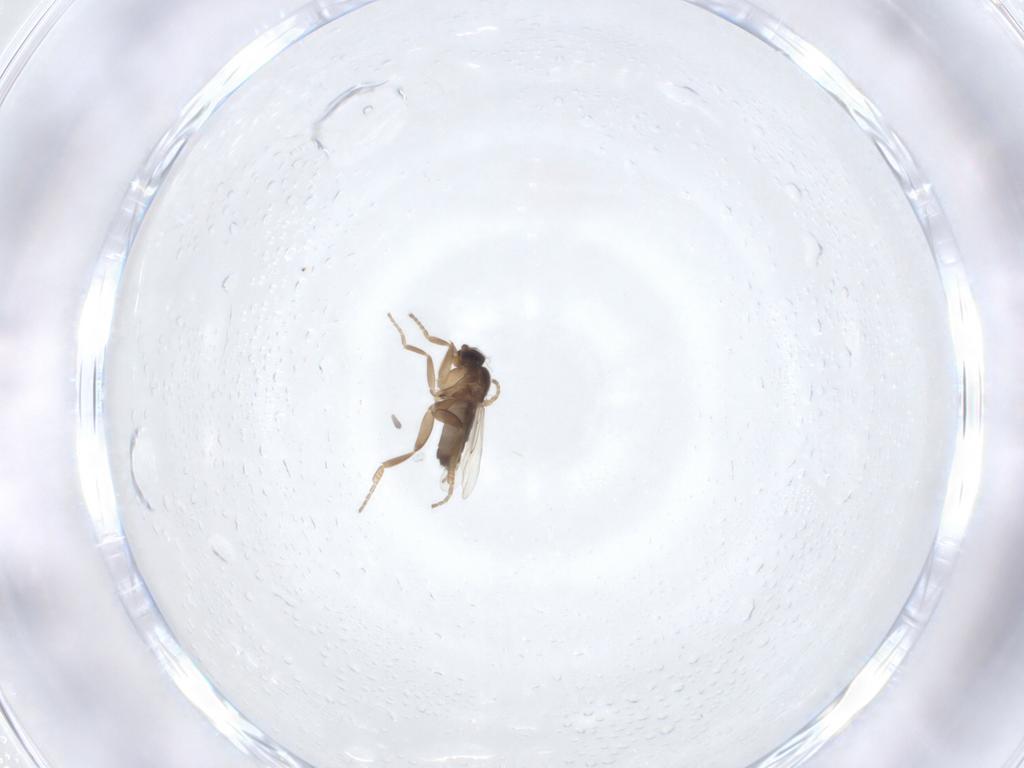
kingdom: Animalia
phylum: Arthropoda
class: Insecta
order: Diptera
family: Phoridae
